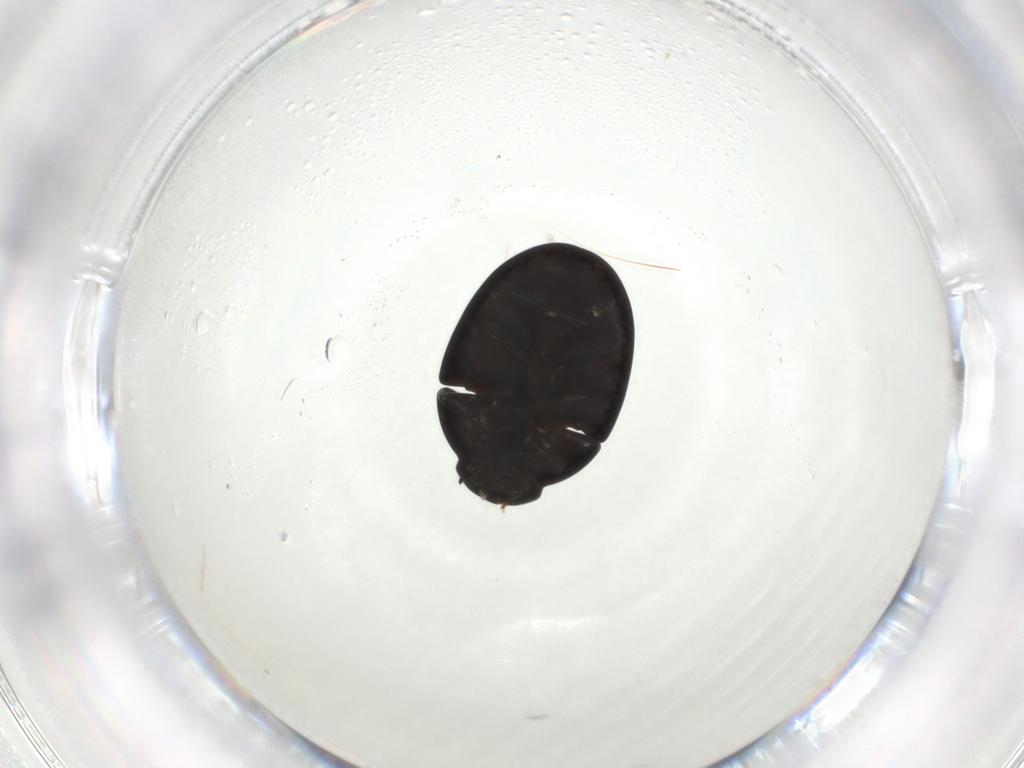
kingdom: Animalia
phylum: Arthropoda
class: Insecta
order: Coleoptera
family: Phalacridae
